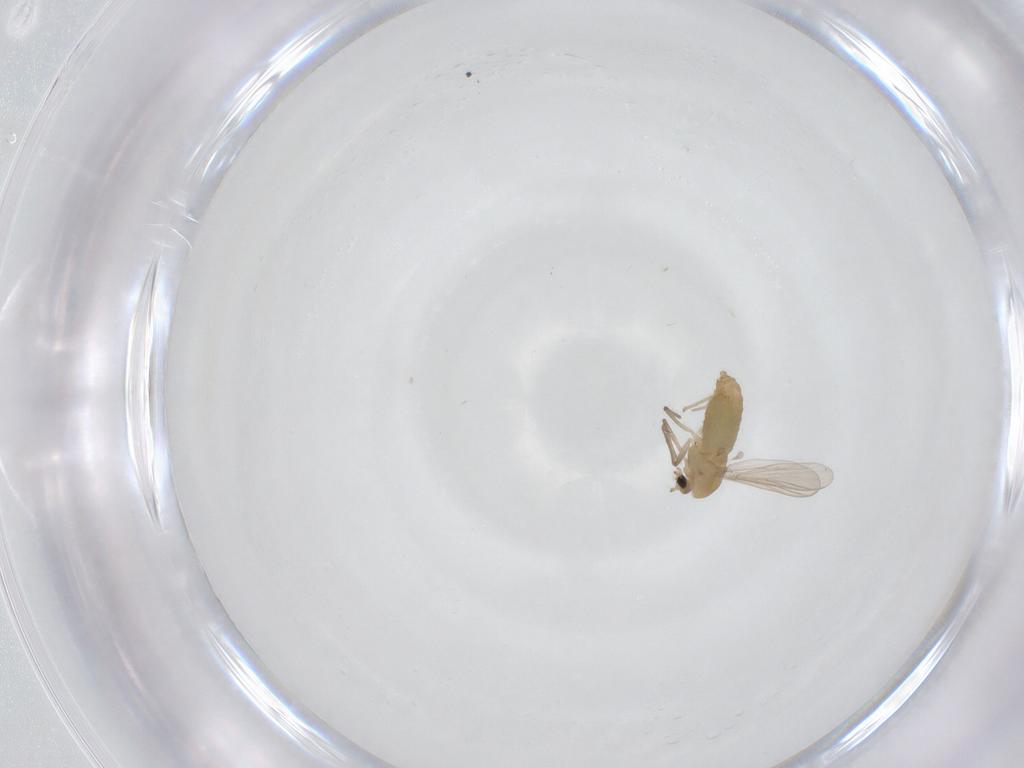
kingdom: Animalia
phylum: Arthropoda
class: Insecta
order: Diptera
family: Chironomidae
